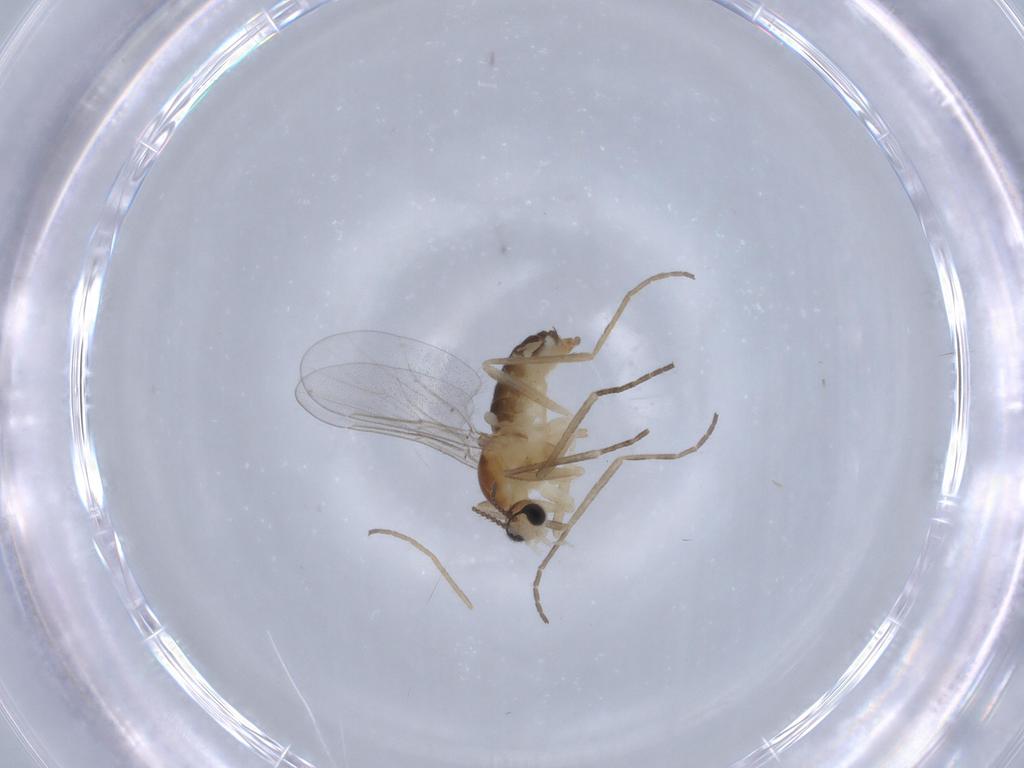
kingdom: Animalia
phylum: Arthropoda
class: Insecta
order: Diptera
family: Cecidomyiidae
